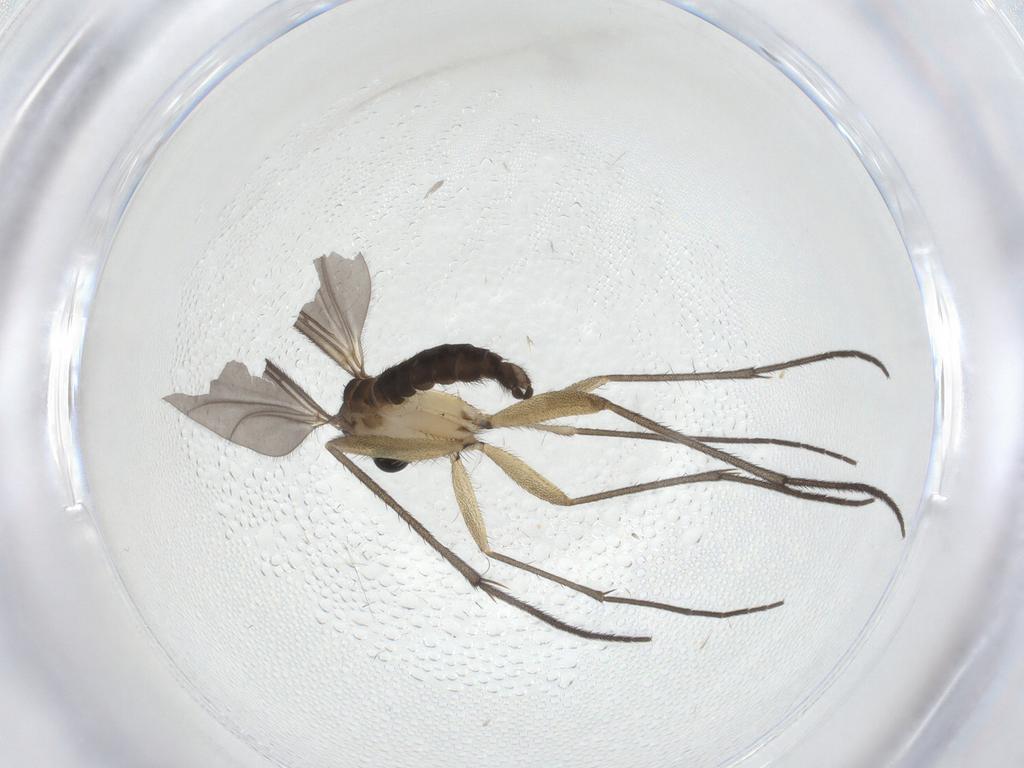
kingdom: Animalia
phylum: Arthropoda
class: Insecta
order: Diptera
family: Sciaridae
